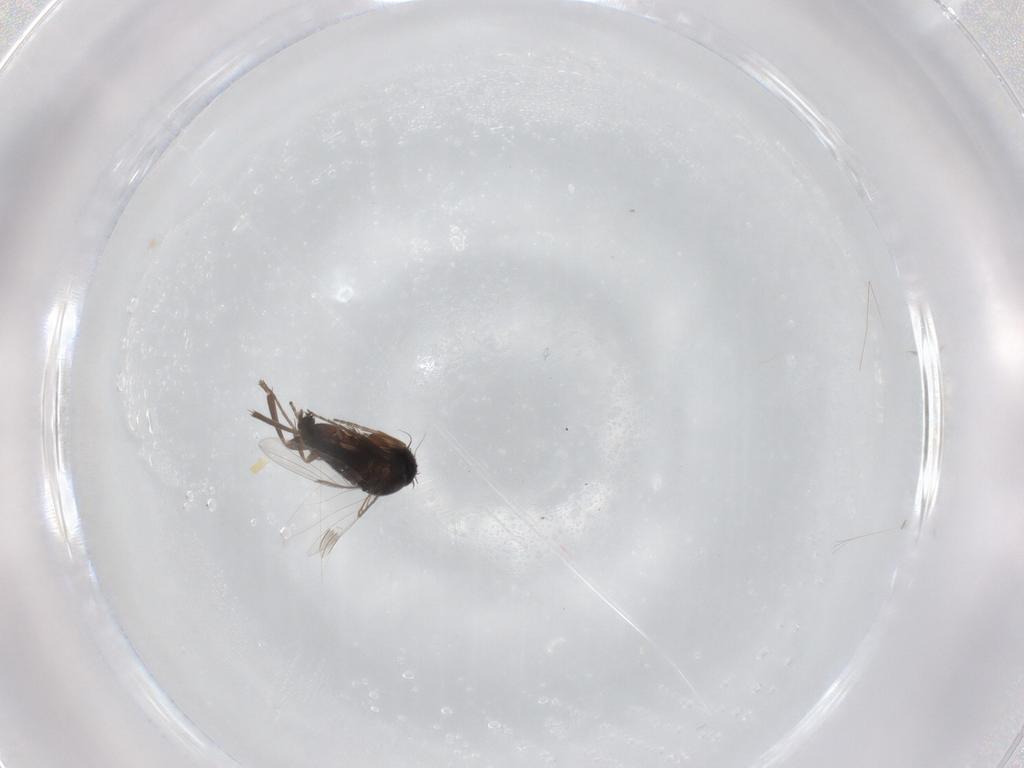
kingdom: Animalia
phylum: Arthropoda
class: Insecta
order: Diptera
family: Phoridae
